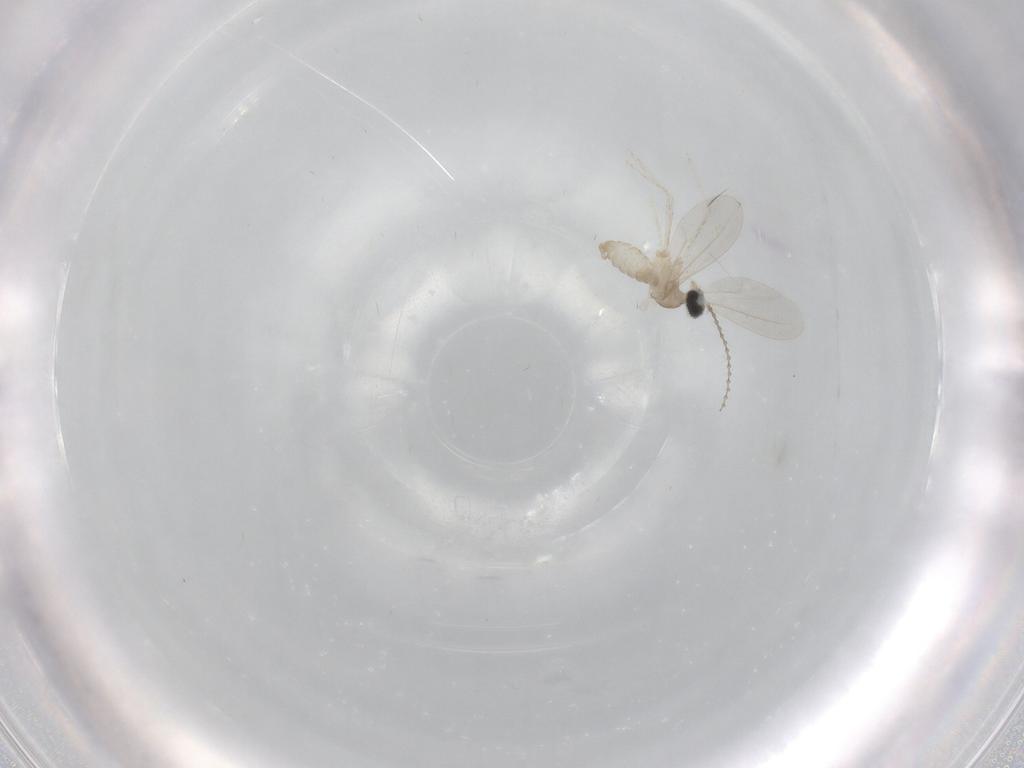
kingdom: Animalia
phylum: Arthropoda
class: Insecta
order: Diptera
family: Cecidomyiidae
